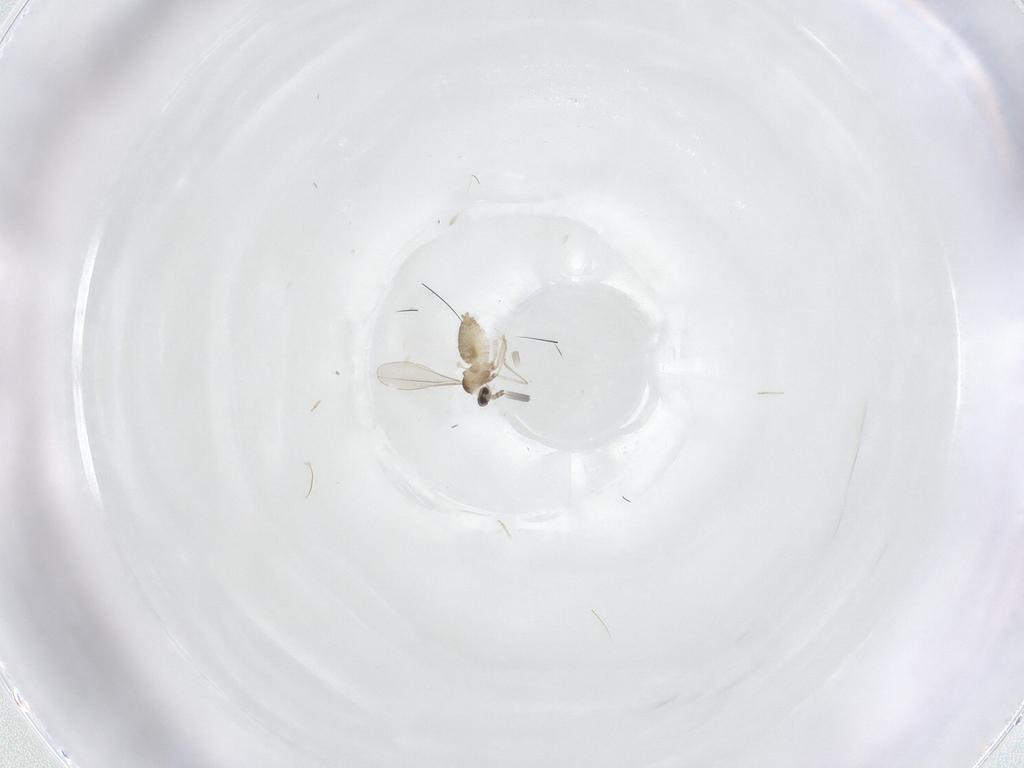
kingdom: Animalia
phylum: Arthropoda
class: Insecta
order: Diptera
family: Cecidomyiidae
